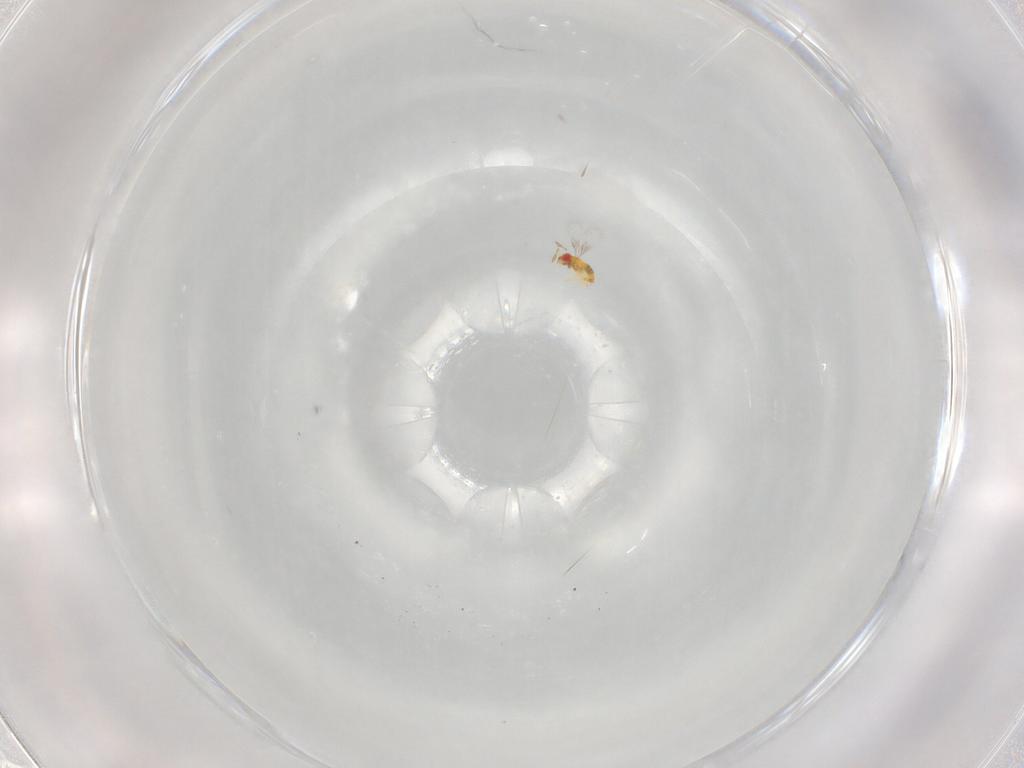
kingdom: Animalia
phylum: Arthropoda
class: Insecta
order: Hymenoptera
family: Trichogrammatidae
